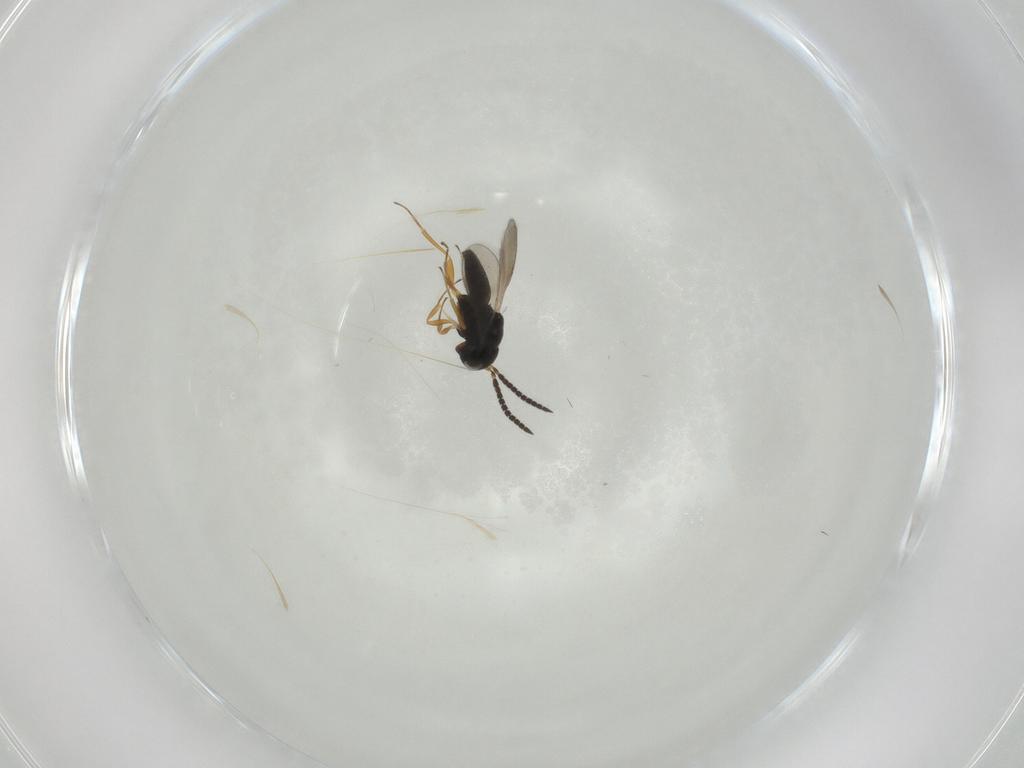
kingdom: Animalia
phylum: Arthropoda
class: Insecta
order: Hymenoptera
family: Scelionidae
